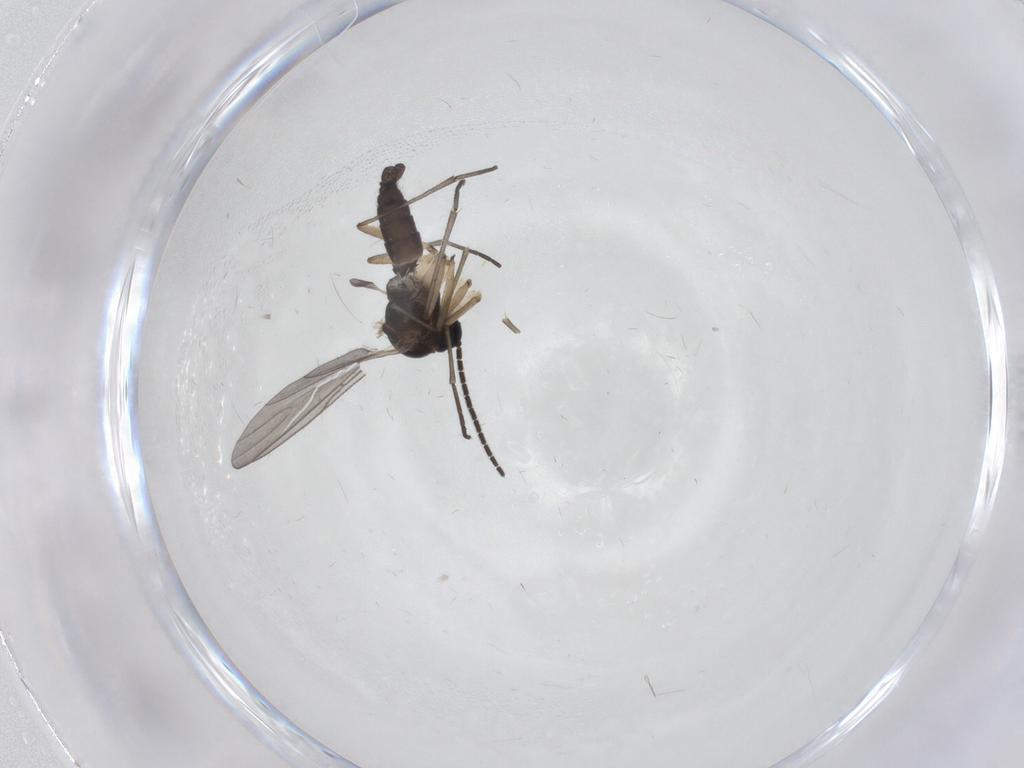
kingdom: Animalia
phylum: Arthropoda
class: Insecta
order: Diptera
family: Sciaridae
